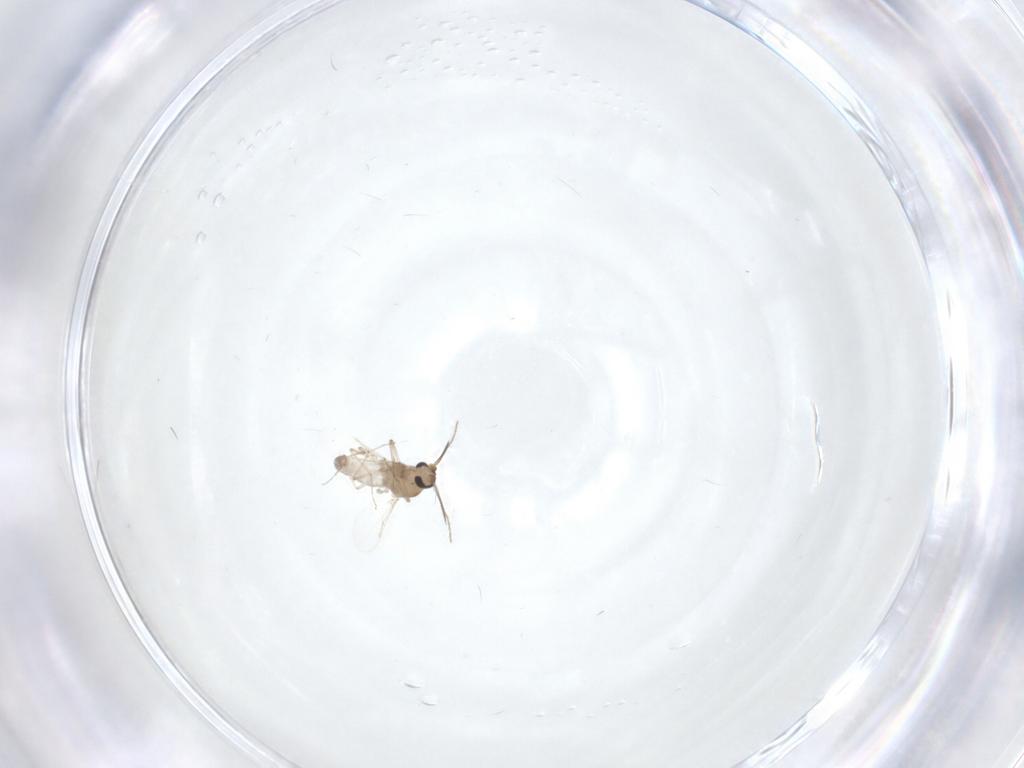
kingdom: Animalia
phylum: Arthropoda
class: Insecta
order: Diptera
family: Ceratopogonidae
